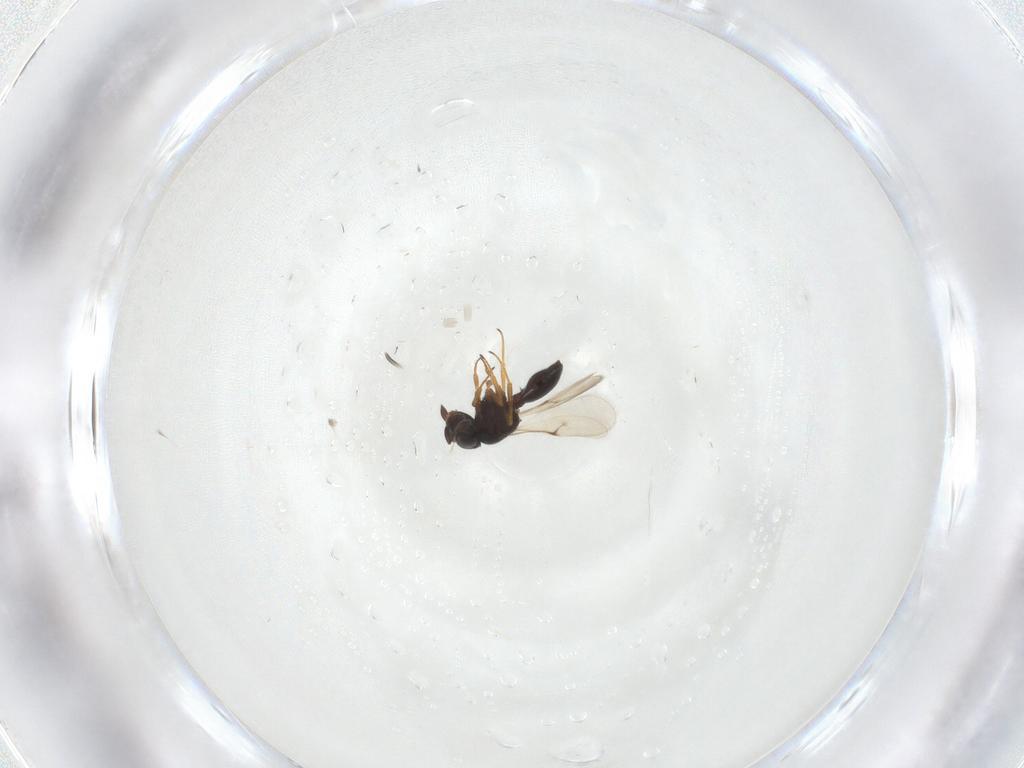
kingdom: Animalia
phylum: Arthropoda
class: Insecta
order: Hymenoptera
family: Scelionidae
